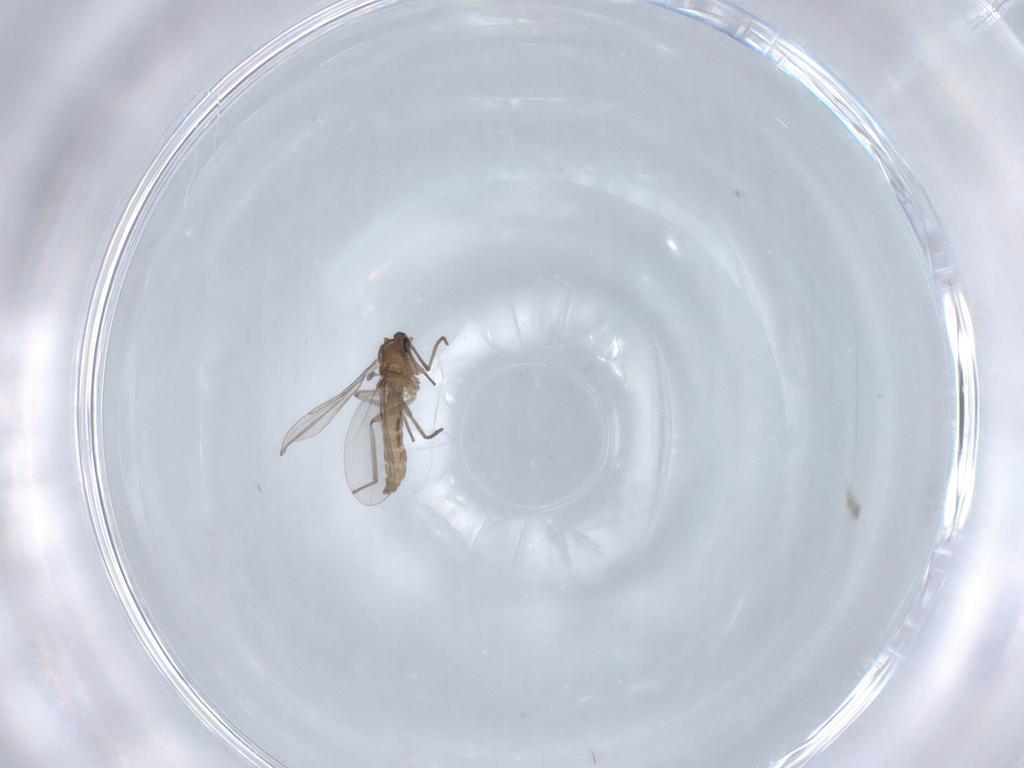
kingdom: Animalia
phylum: Arthropoda
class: Insecta
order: Diptera
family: Cecidomyiidae
